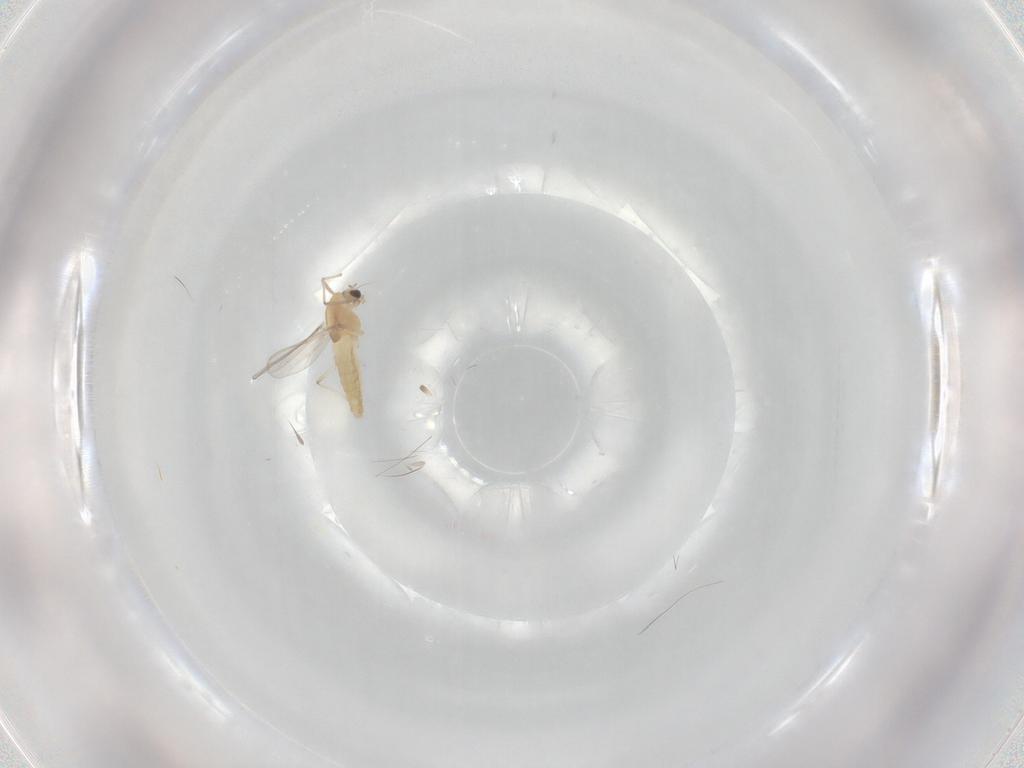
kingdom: Animalia
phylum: Arthropoda
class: Insecta
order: Diptera
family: Chironomidae
